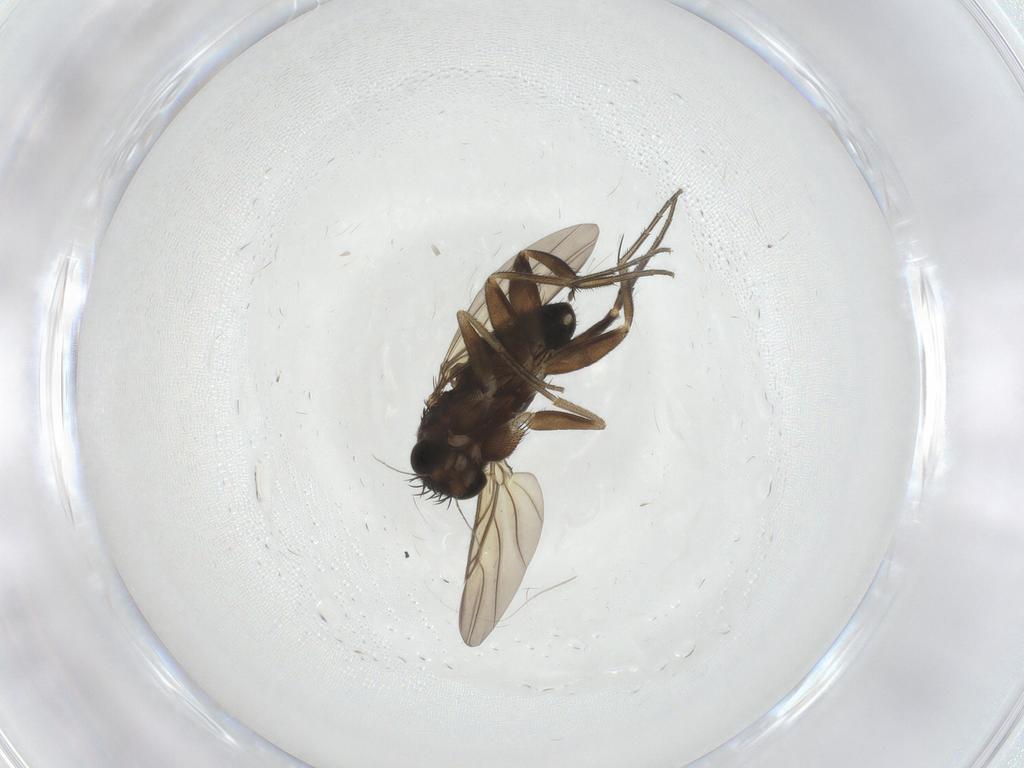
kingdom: Animalia
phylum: Arthropoda
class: Insecta
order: Diptera
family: Phoridae
